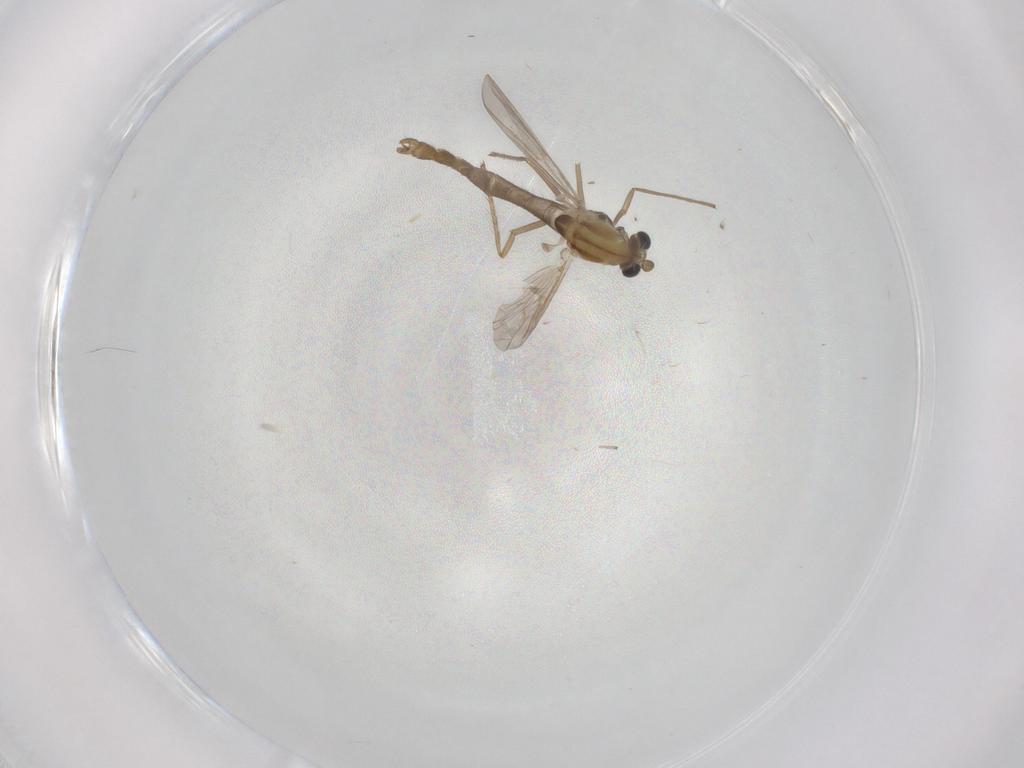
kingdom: Animalia
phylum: Arthropoda
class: Insecta
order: Diptera
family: Chironomidae
